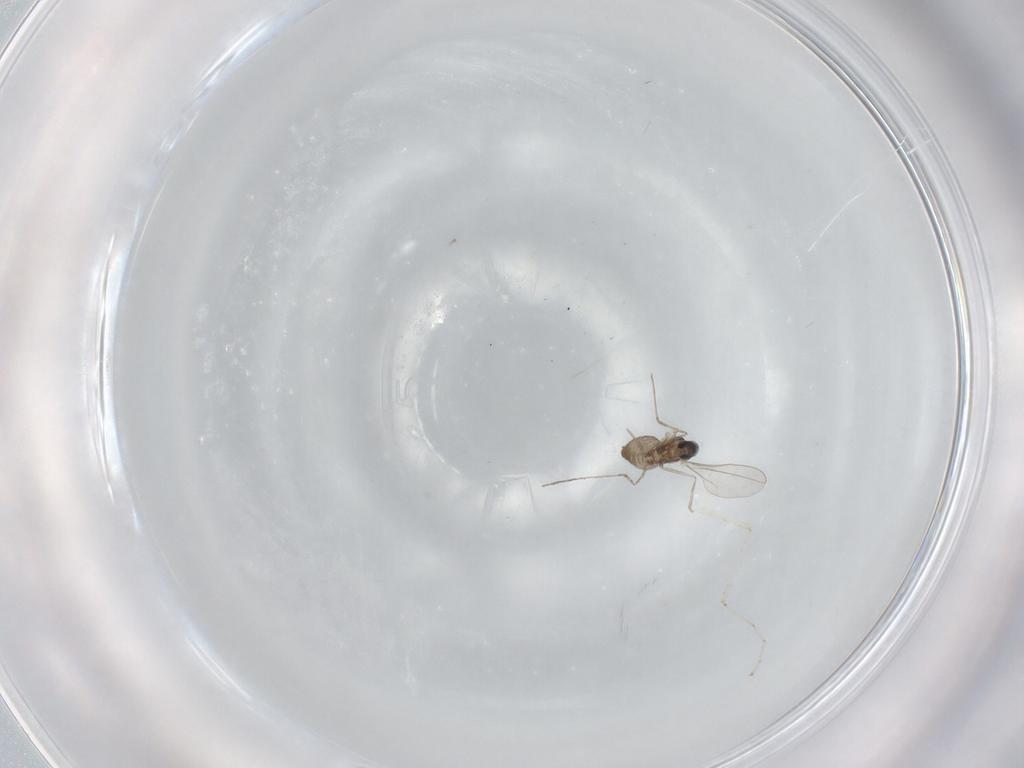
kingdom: Animalia
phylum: Arthropoda
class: Insecta
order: Diptera
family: Cecidomyiidae
